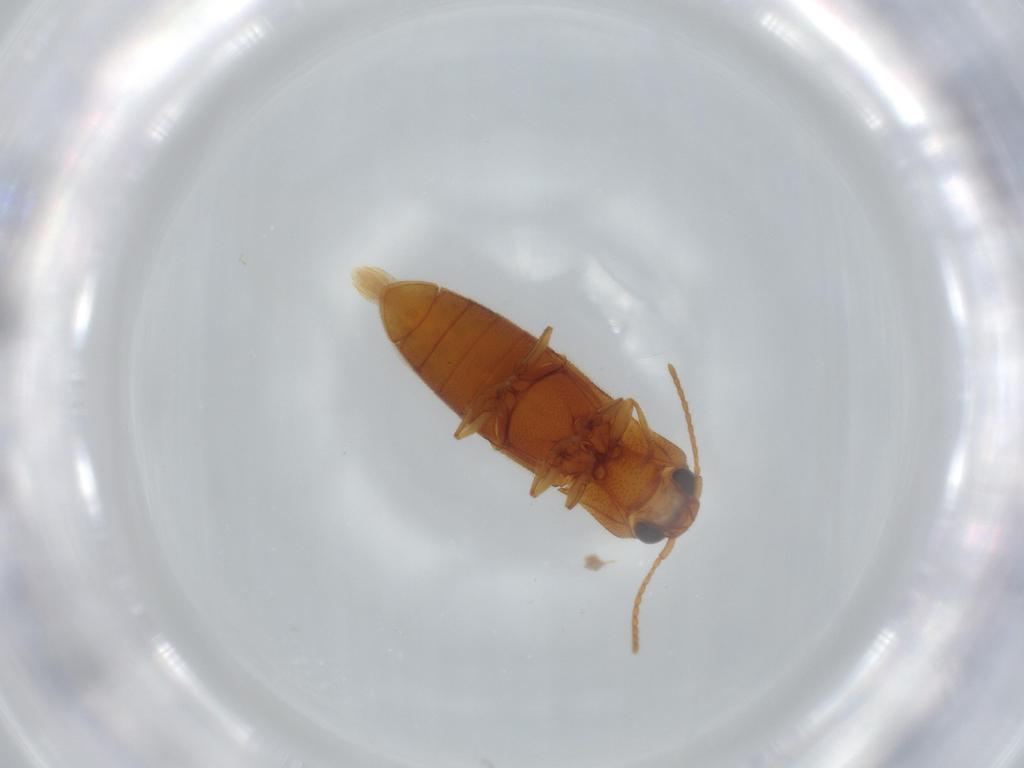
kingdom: Animalia
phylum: Arthropoda
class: Insecta
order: Coleoptera
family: Elateridae
